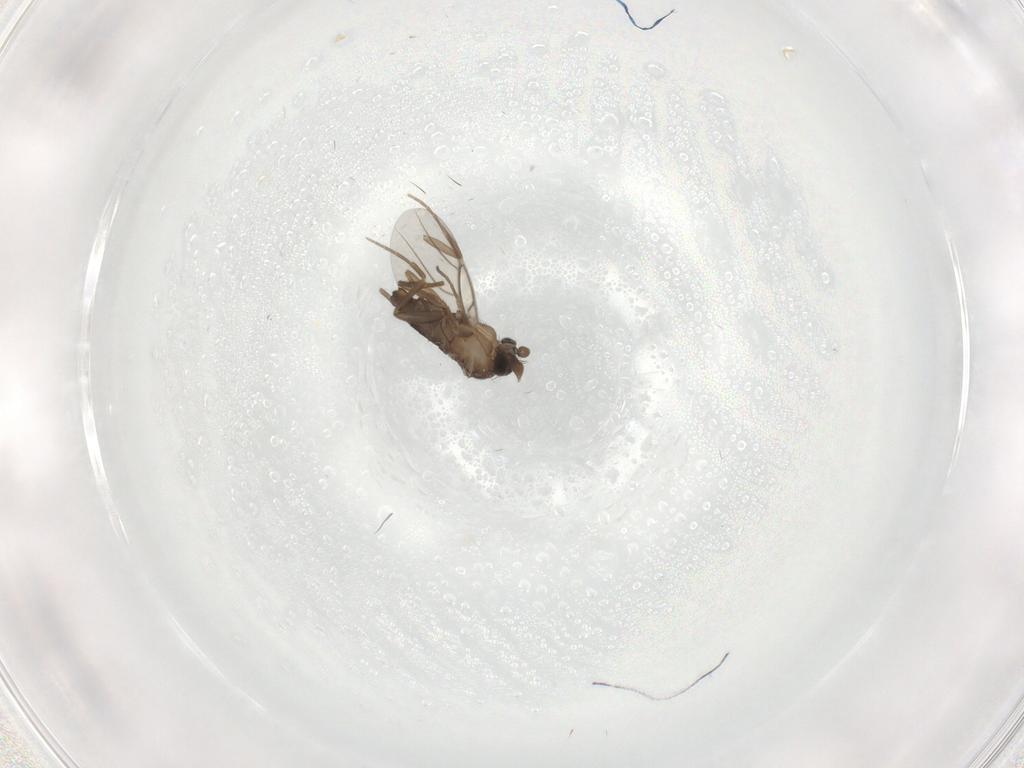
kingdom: Animalia
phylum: Arthropoda
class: Insecta
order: Diptera
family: Phoridae
